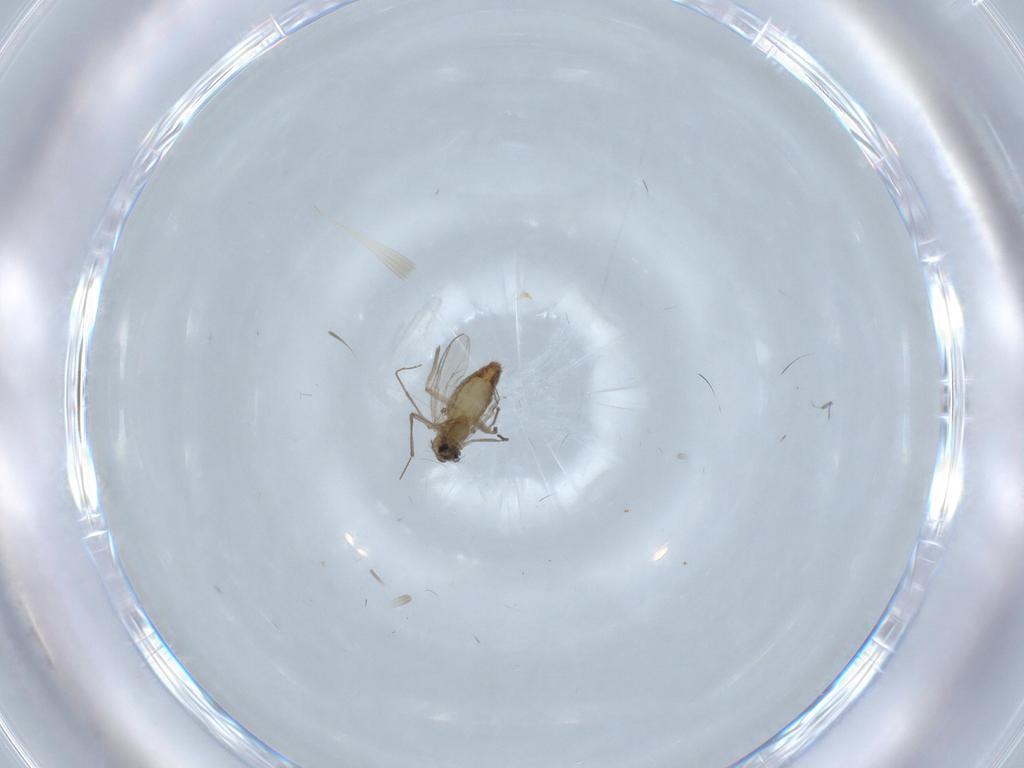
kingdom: Animalia
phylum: Arthropoda
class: Insecta
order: Diptera
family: Chironomidae
